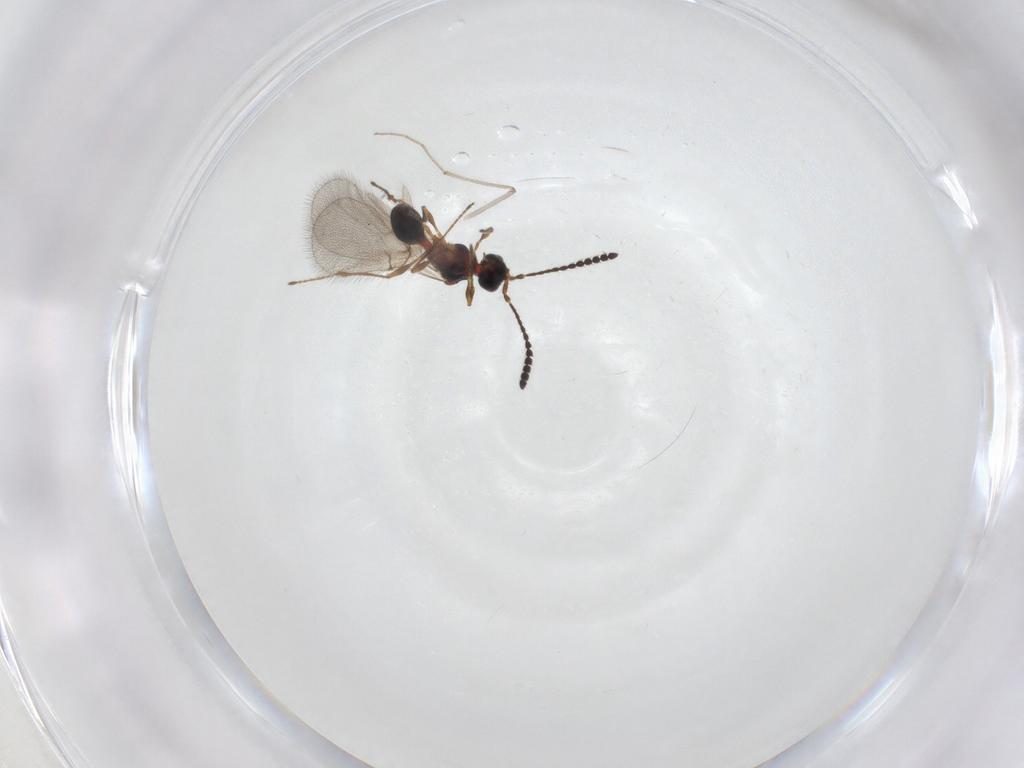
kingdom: Animalia
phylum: Arthropoda
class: Insecta
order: Hymenoptera
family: Diapriidae
